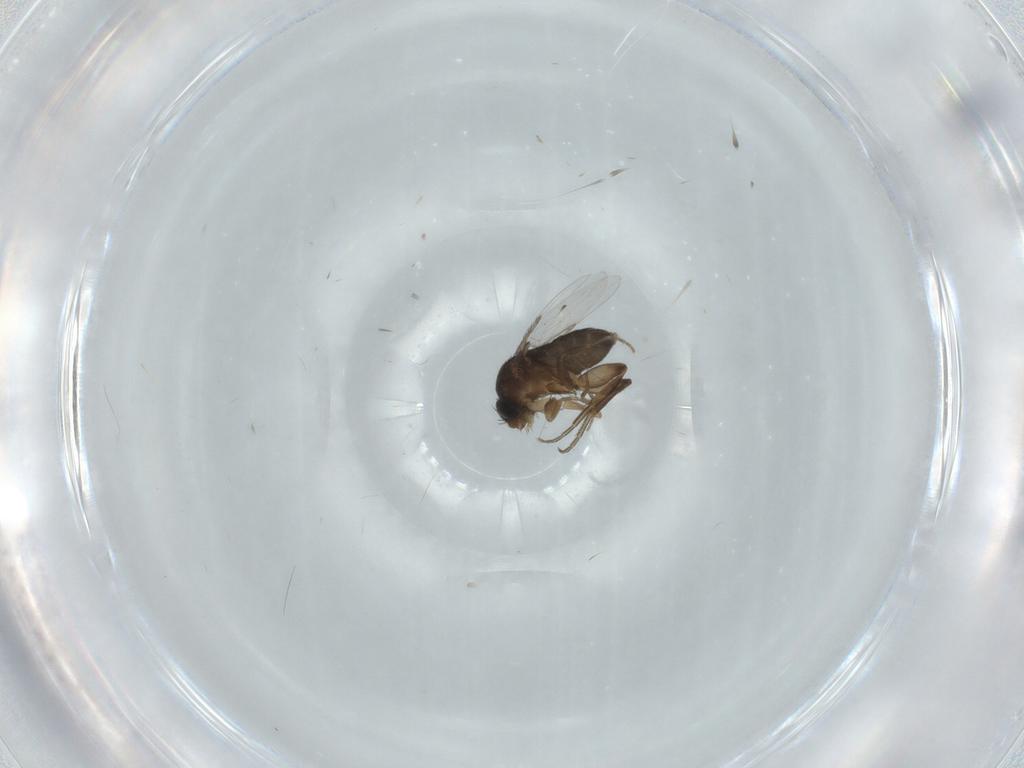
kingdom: Animalia
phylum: Arthropoda
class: Insecta
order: Diptera
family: Phoridae
